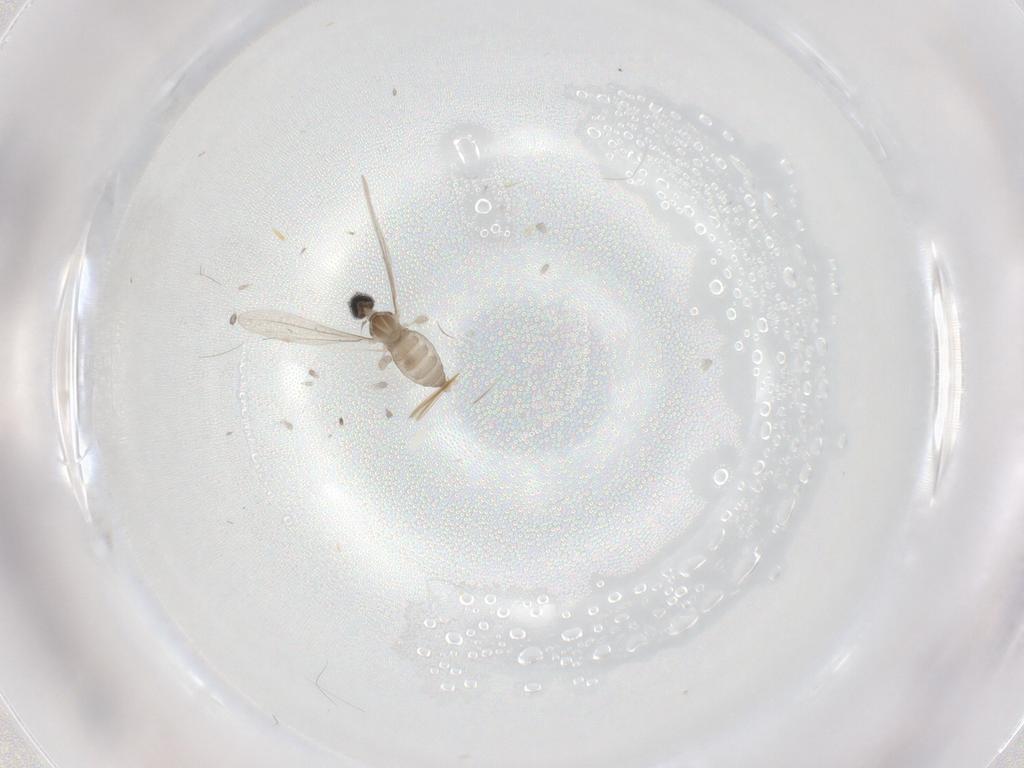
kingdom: Animalia
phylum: Arthropoda
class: Insecta
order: Diptera
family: Cecidomyiidae
